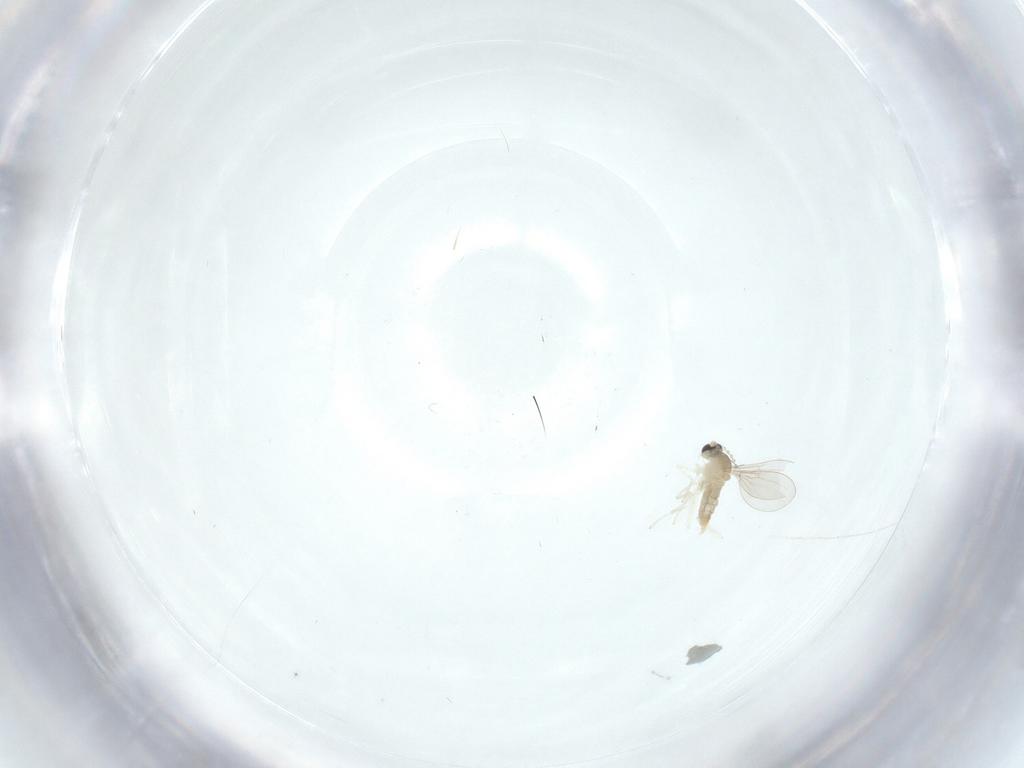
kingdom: Animalia
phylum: Arthropoda
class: Insecta
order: Diptera
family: Cecidomyiidae
